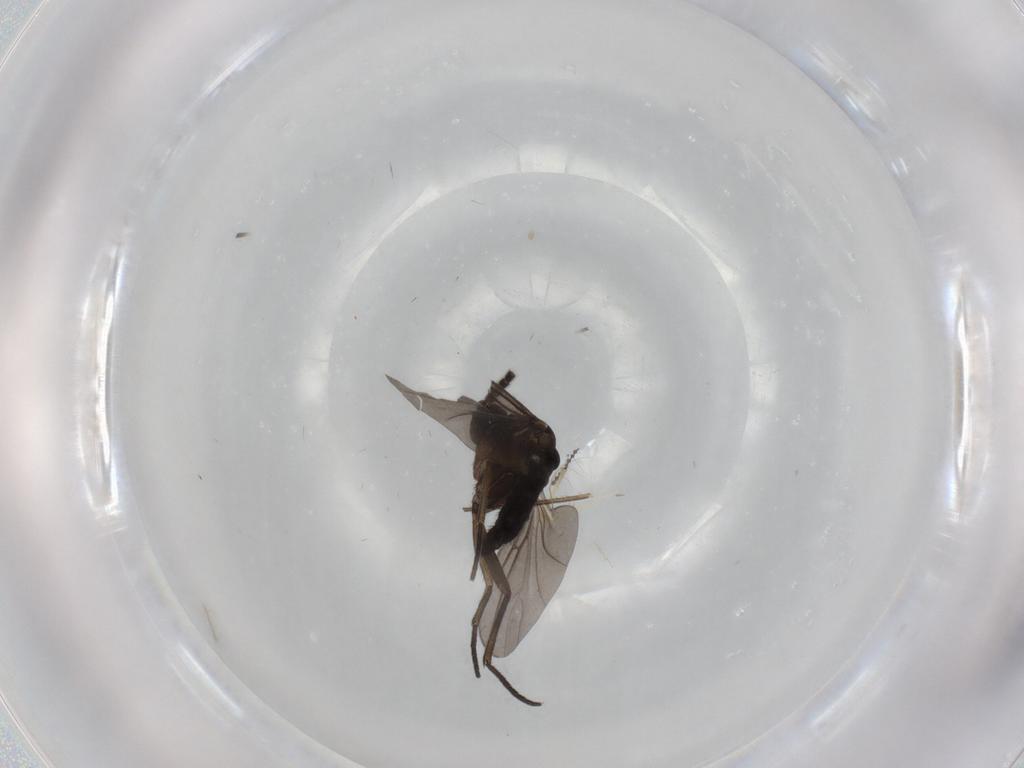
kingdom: Animalia
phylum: Arthropoda
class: Insecta
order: Diptera
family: Sciaridae
